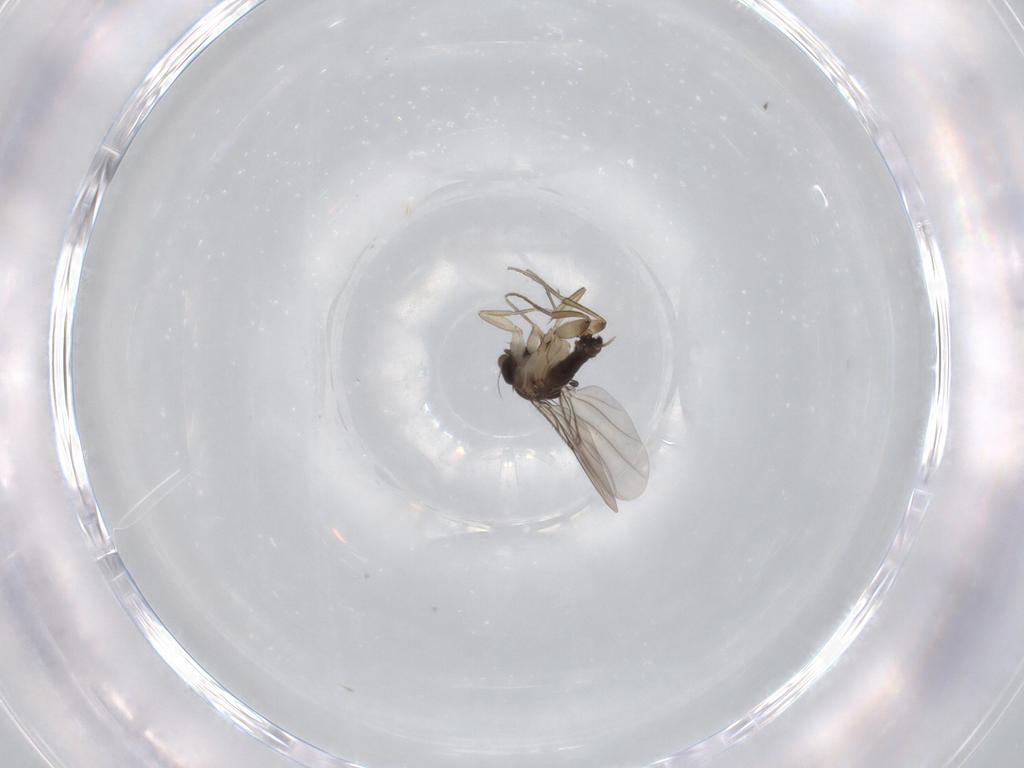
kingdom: Animalia
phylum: Arthropoda
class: Insecta
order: Diptera
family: Phoridae
